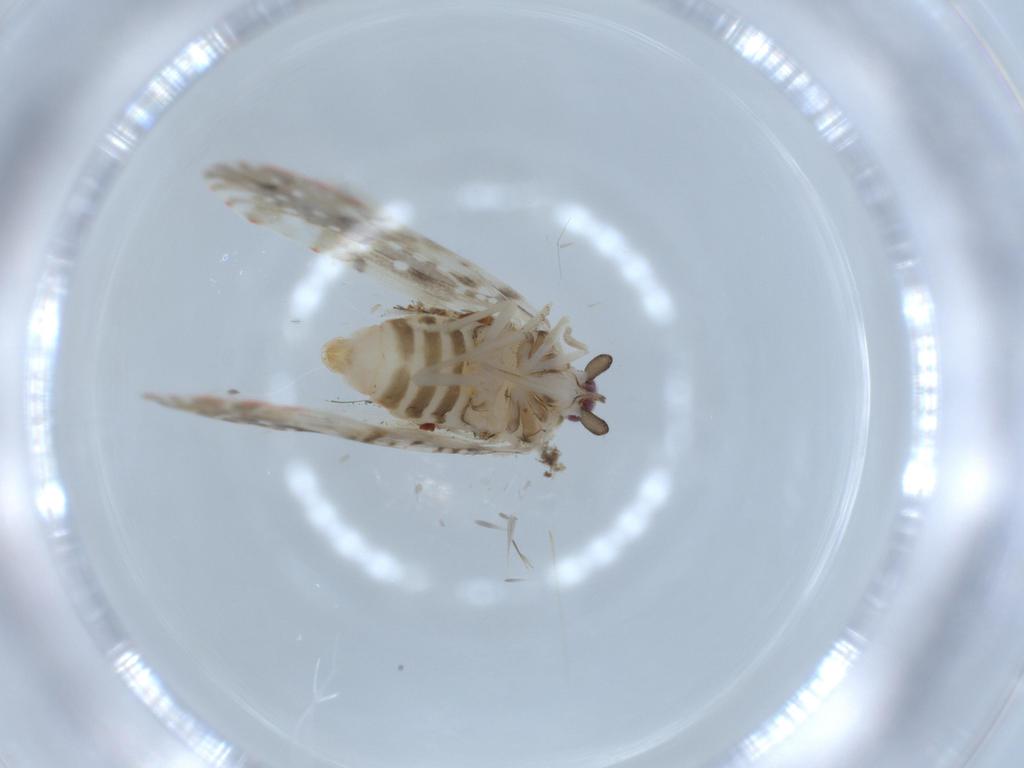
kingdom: Animalia
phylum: Arthropoda
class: Insecta
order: Hemiptera
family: Derbidae
